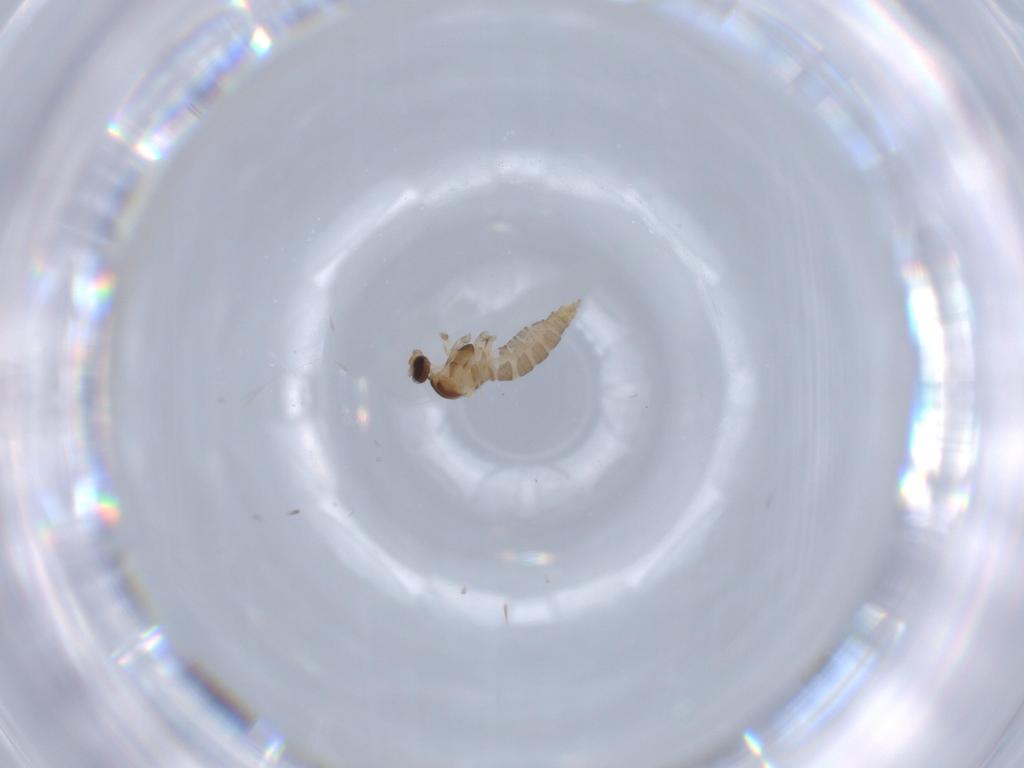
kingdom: Animalia
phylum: Arthropoda
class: Insecta
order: Diptera
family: Cecidomyiidae
